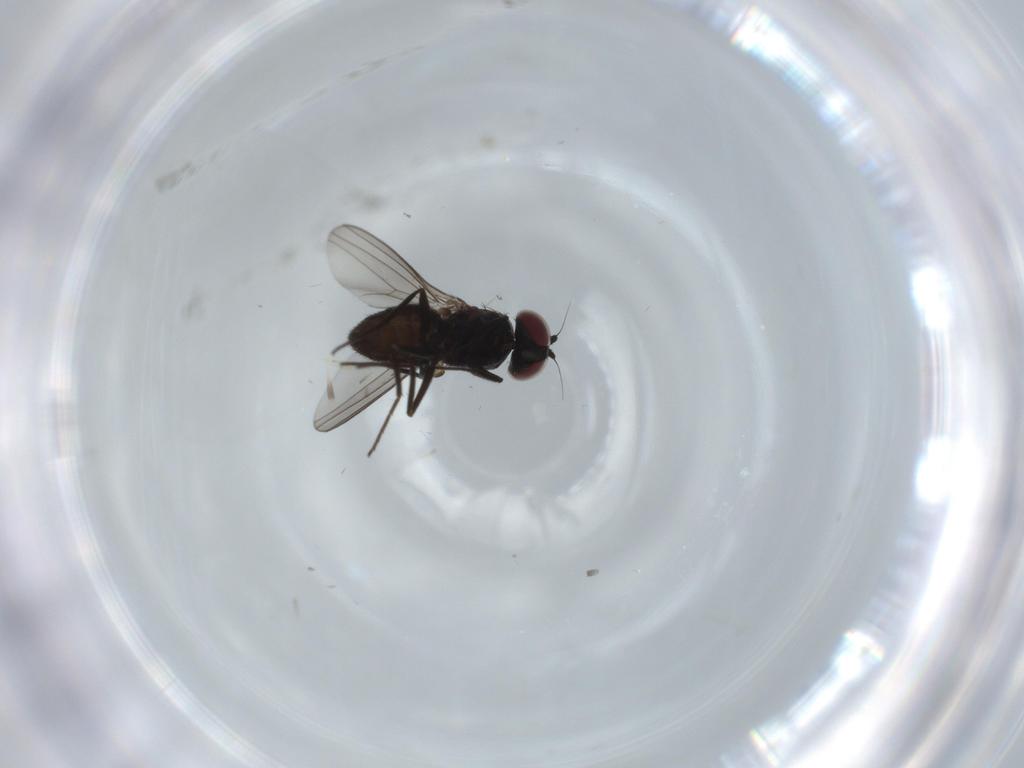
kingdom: Animalia
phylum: Arthropoda
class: Insecta
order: Diptera
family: Dolichopodidae
